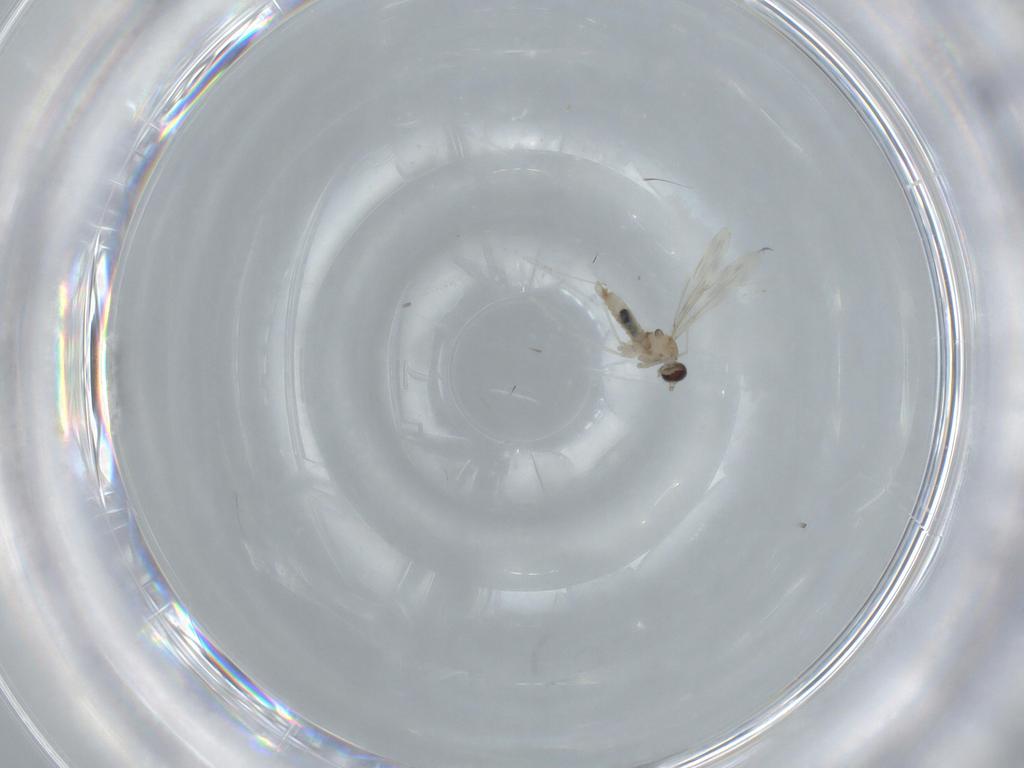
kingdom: Animalia
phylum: Arthropoda
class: Insecta
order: Diptera
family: Cecidomyiidae
